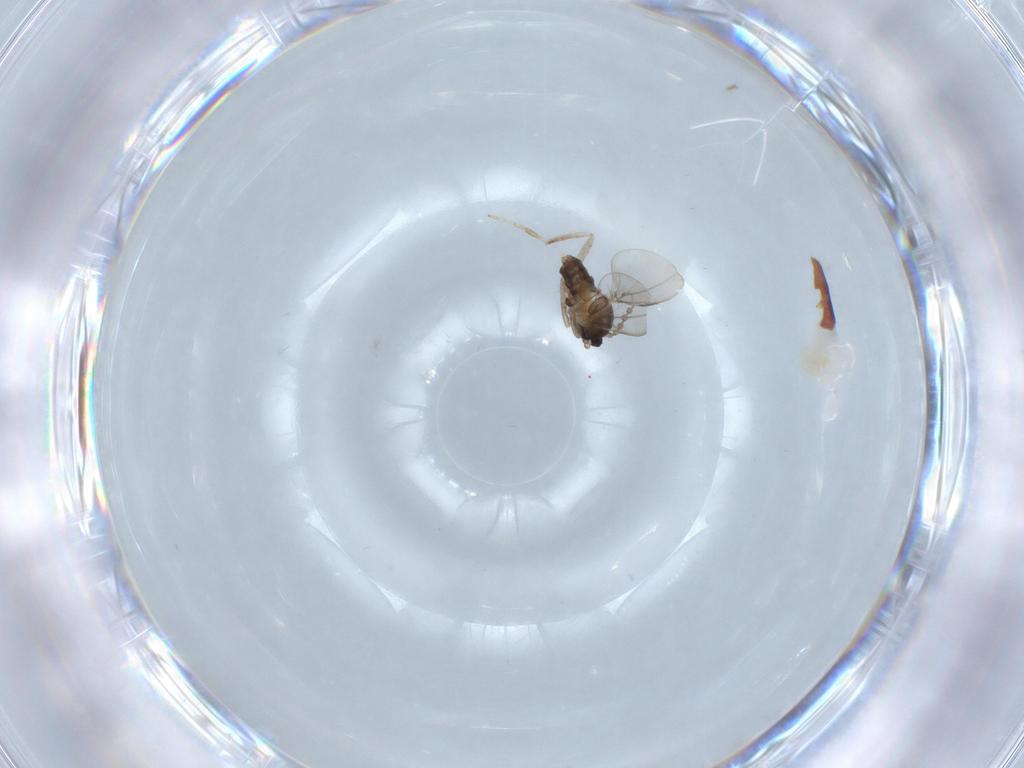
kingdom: Animalia
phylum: Arthropoda
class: Insecta
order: Diptera
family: Cecidomyiidae
